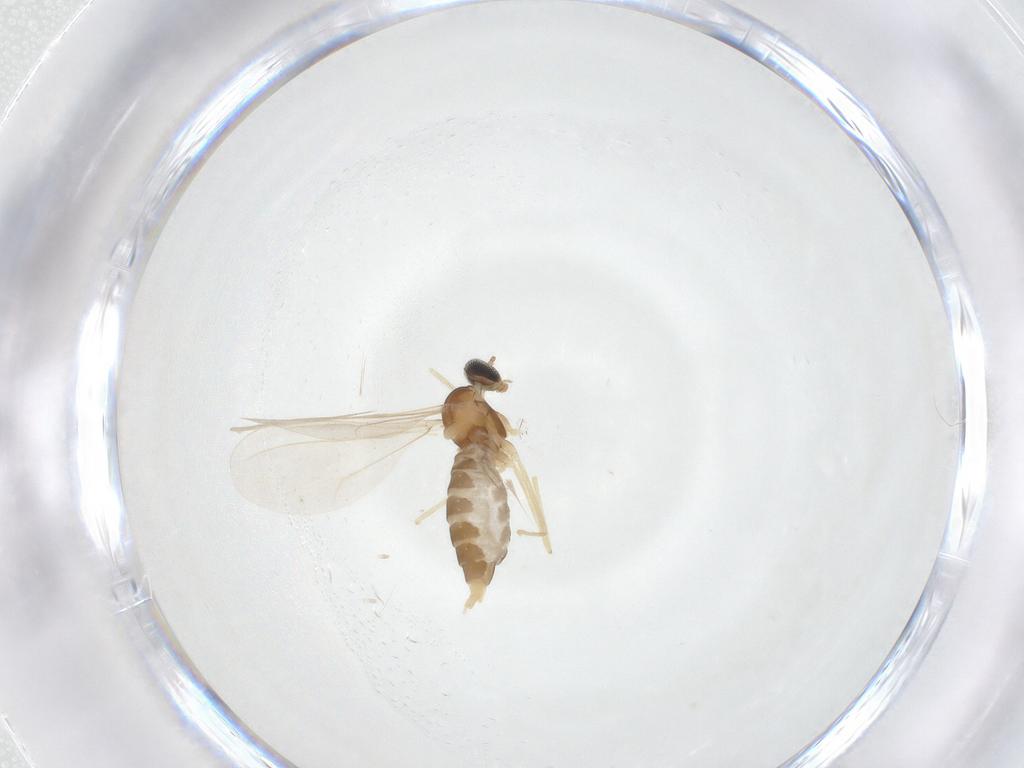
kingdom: Animalia
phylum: Arthropoda
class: Insecta
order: Diptera
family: Cecidomyiidae
